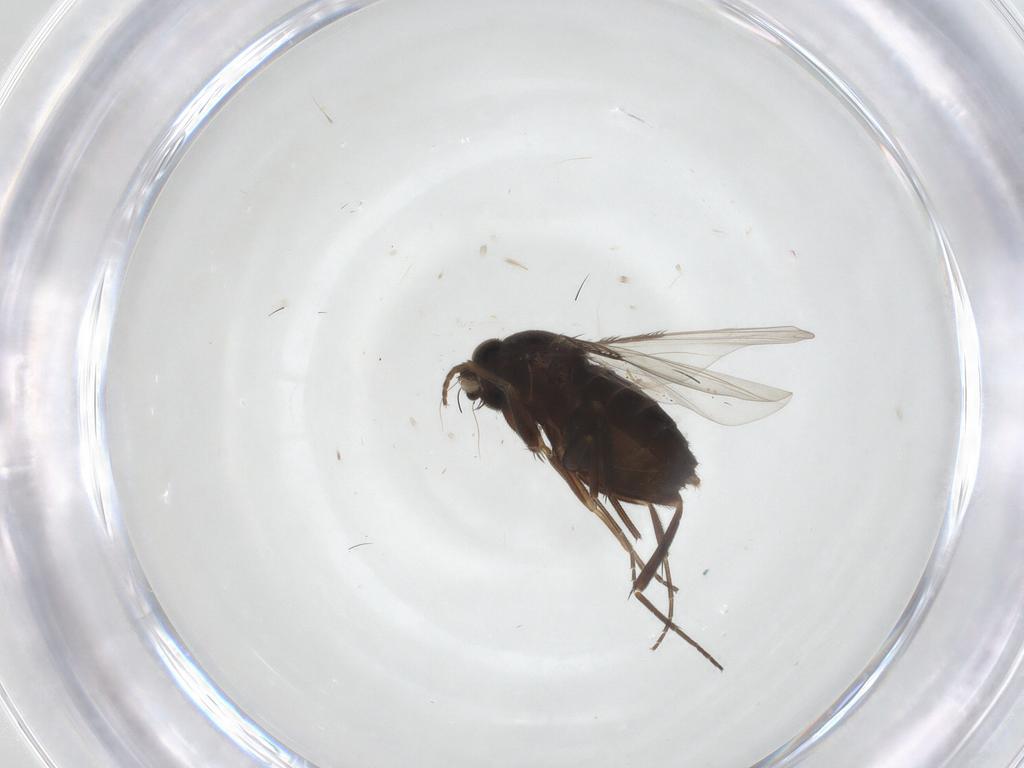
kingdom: Animalia
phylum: Arthropoda
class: Insecta
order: Diptera
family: Phoridae
